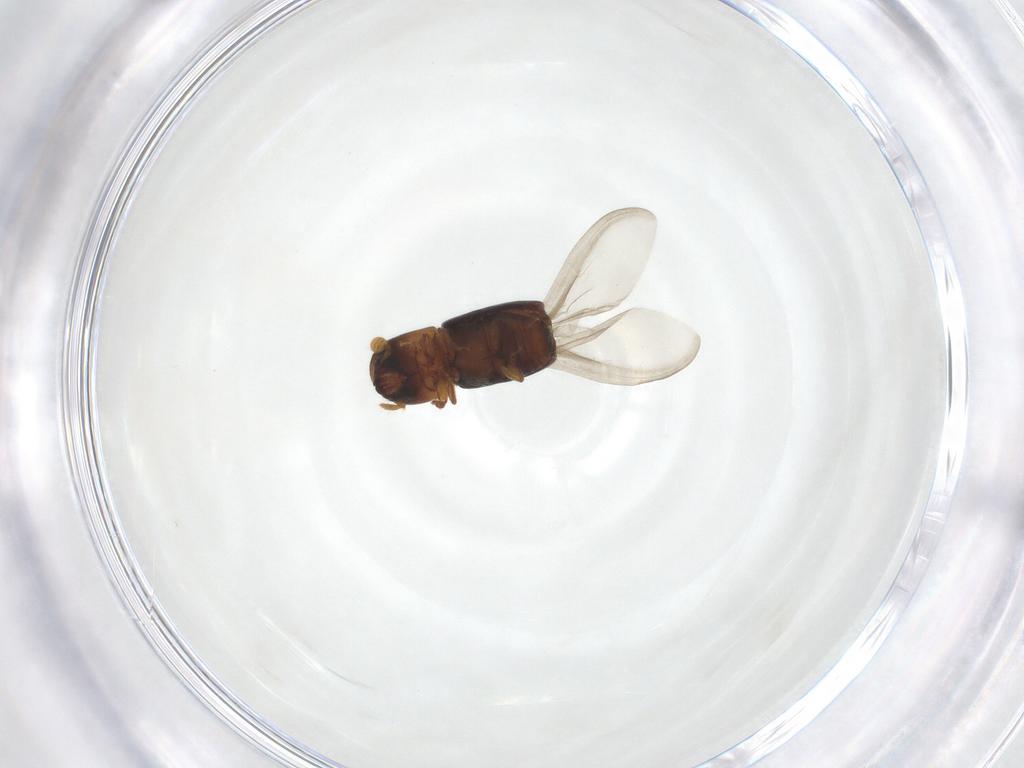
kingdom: Animalia
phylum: Arthropoda
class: Insecta
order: Coleoptera
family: Curculionidae
